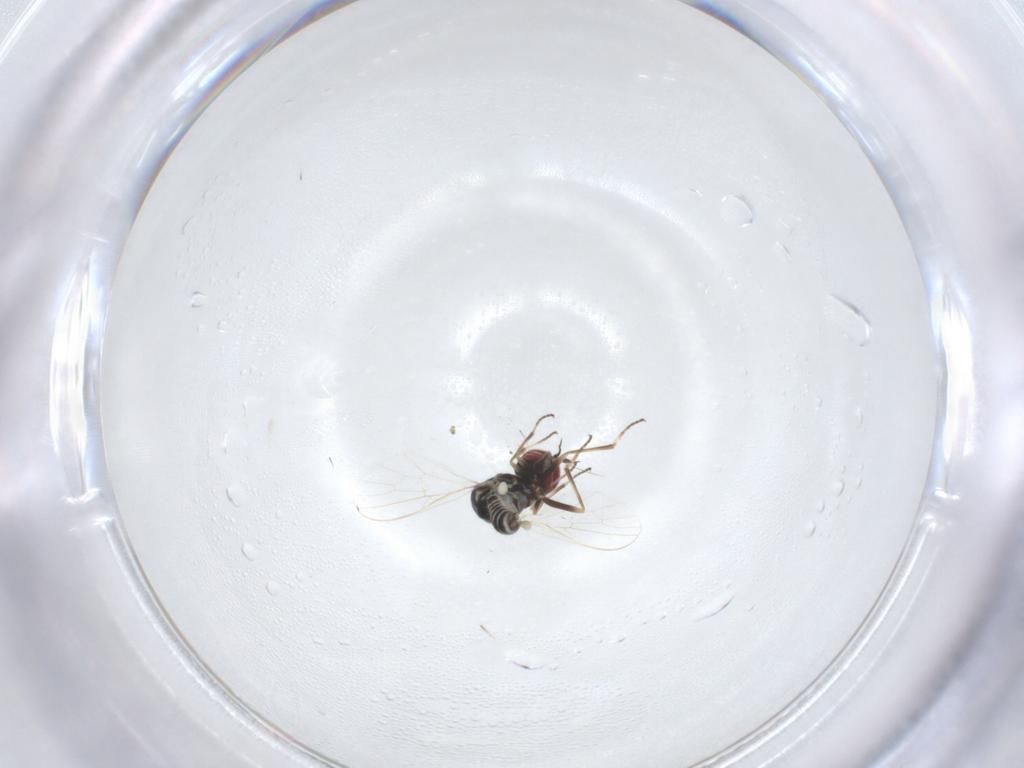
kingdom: Animalia
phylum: Arthropoda
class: Insecta
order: Diptera
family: Mythicomyiidae
